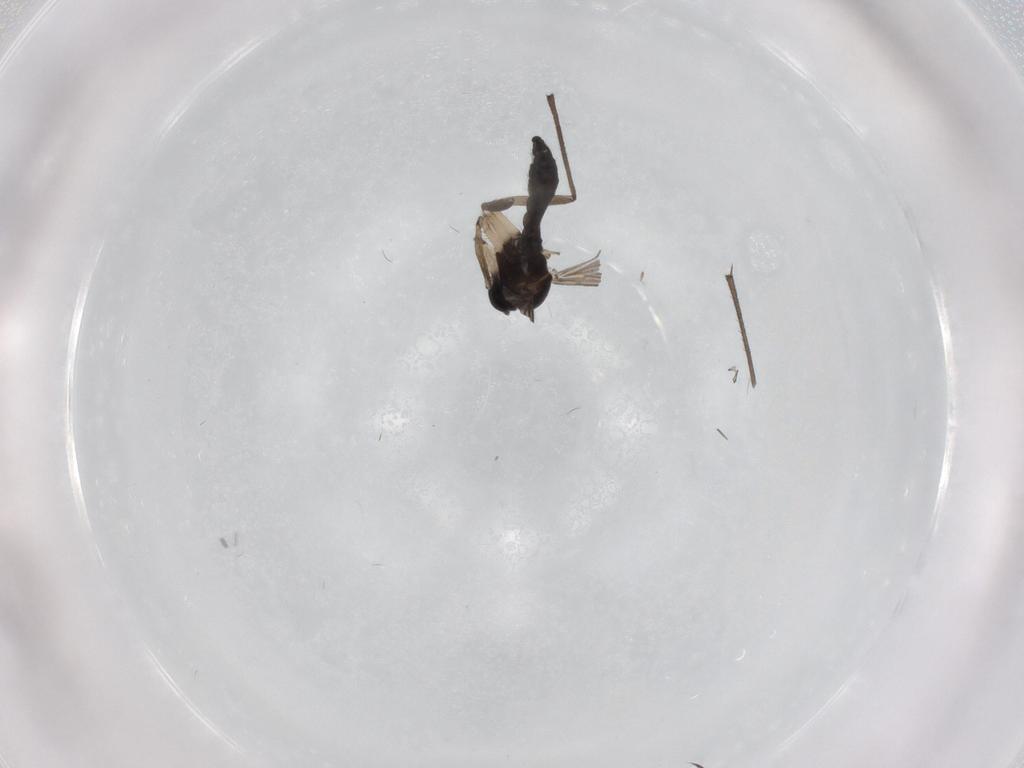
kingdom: Animalia
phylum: Arthropoda
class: Insecta
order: Diptera
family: Sciaridae
